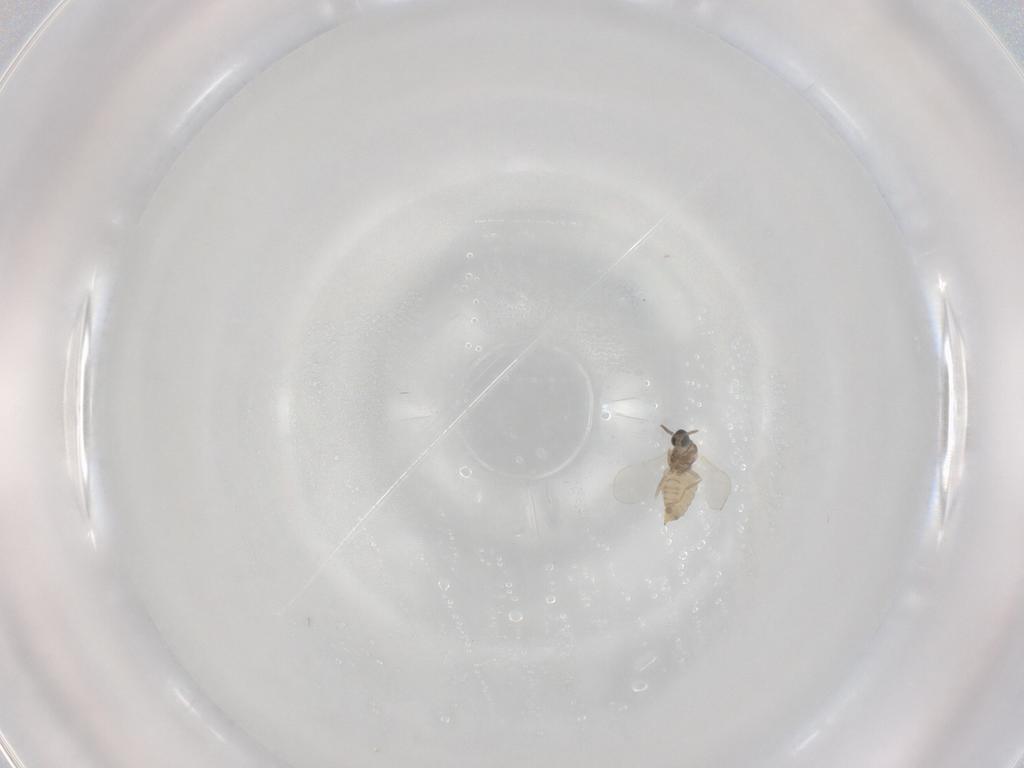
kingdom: Animalia
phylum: Arthropoda
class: Insecta
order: Diptera
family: Cecidomyiidae
